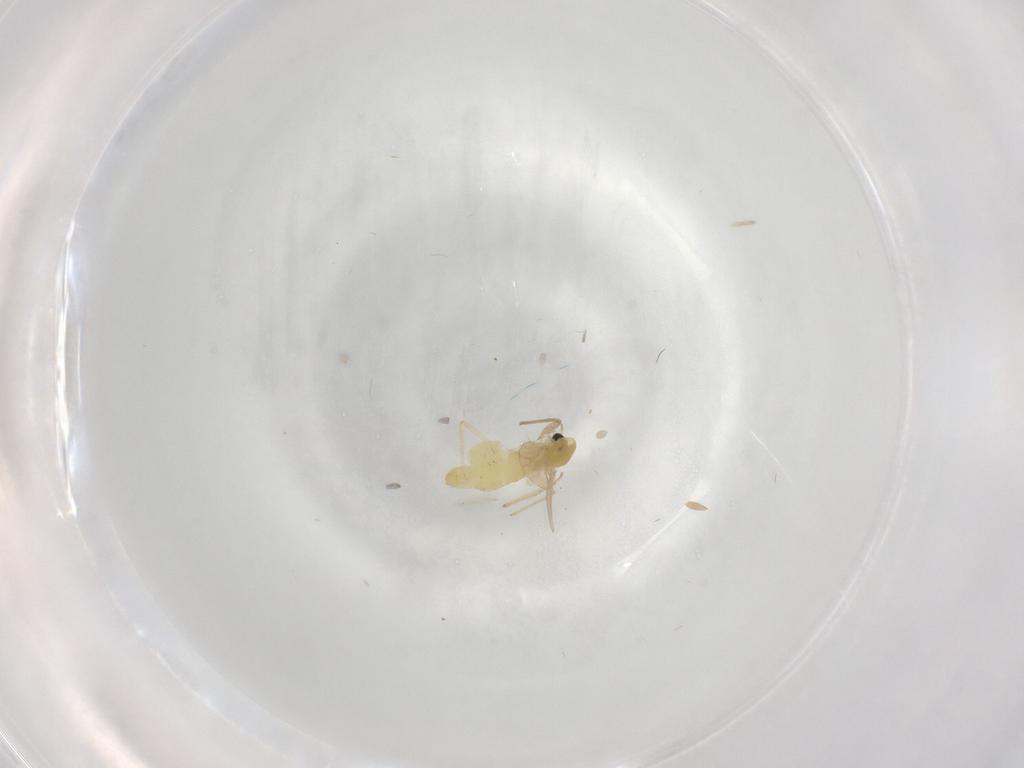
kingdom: Animalia
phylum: Arthropoda
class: Insecta
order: Diptera
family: Chironomidae
